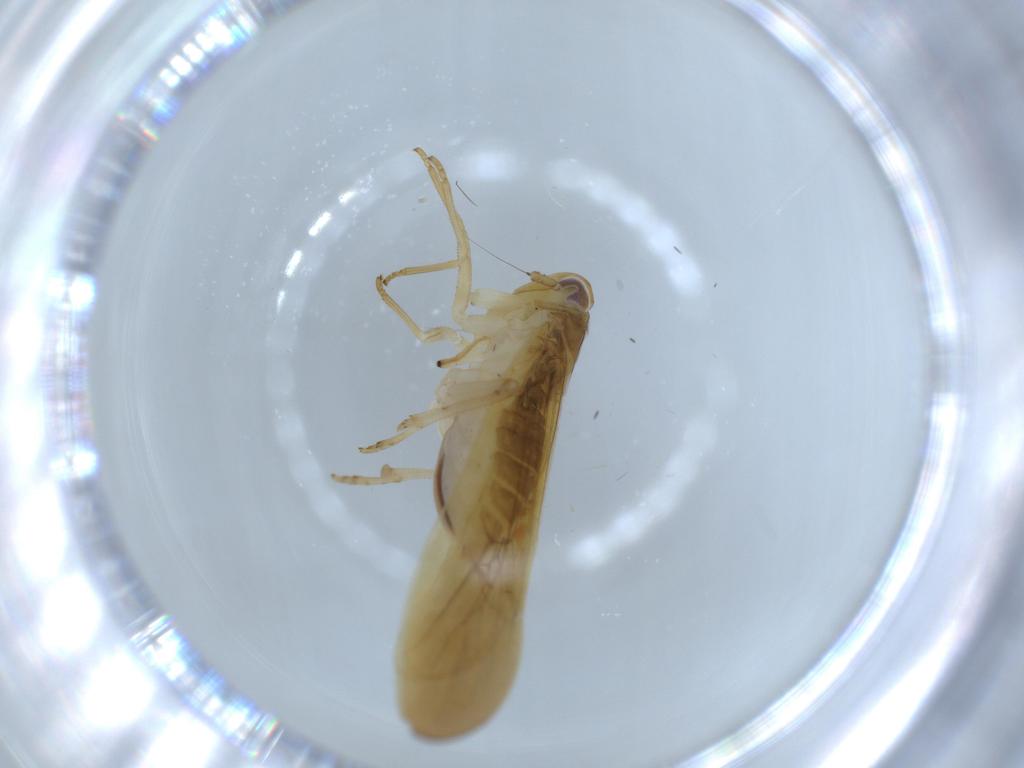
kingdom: Animalia
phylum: Arthropoda
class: Insecta
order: Hemiptera
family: Delphacidae
